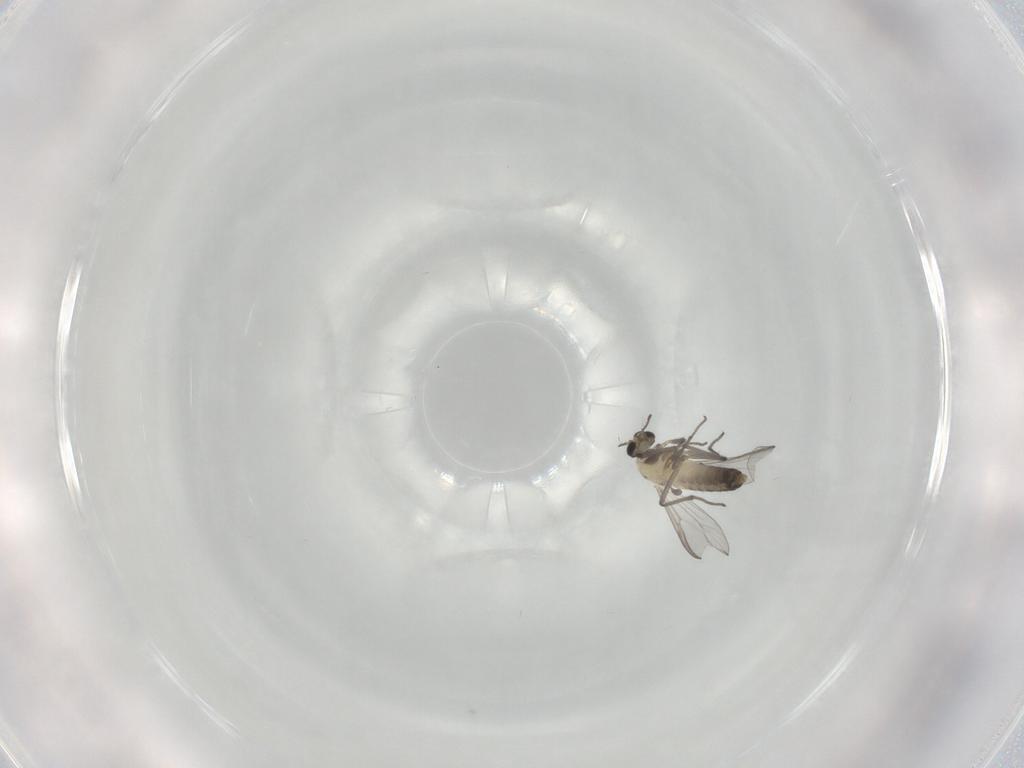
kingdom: Animalia
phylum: Arthropoda
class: Insecta
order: Diptera
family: Chironomidae
